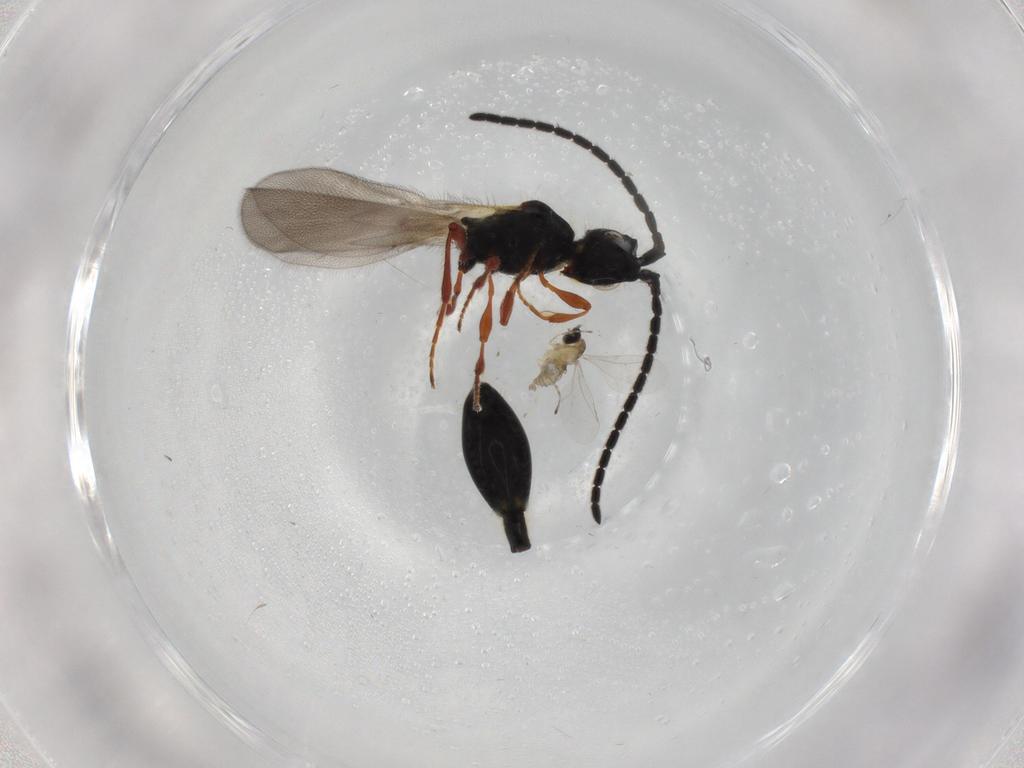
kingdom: Animalia
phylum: Arthropoda
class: Insecta
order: Diptera
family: Cecidomyiidae
